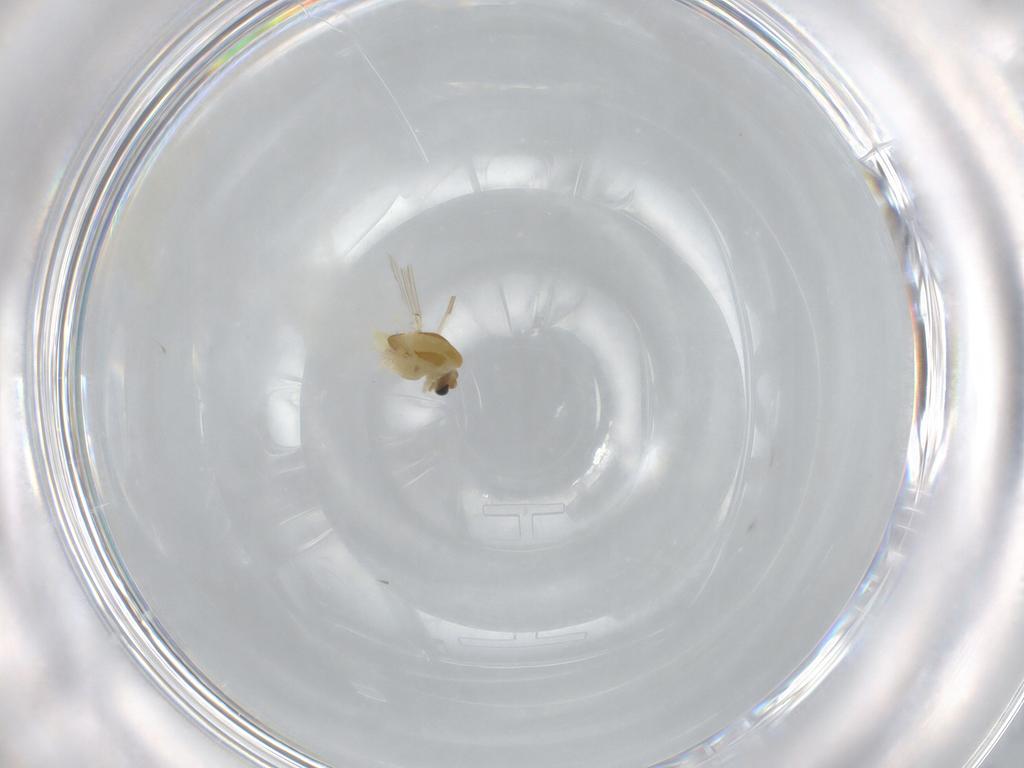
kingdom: Animalia
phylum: Arthropoda
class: Insecta
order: Diptera
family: Chironomidae
